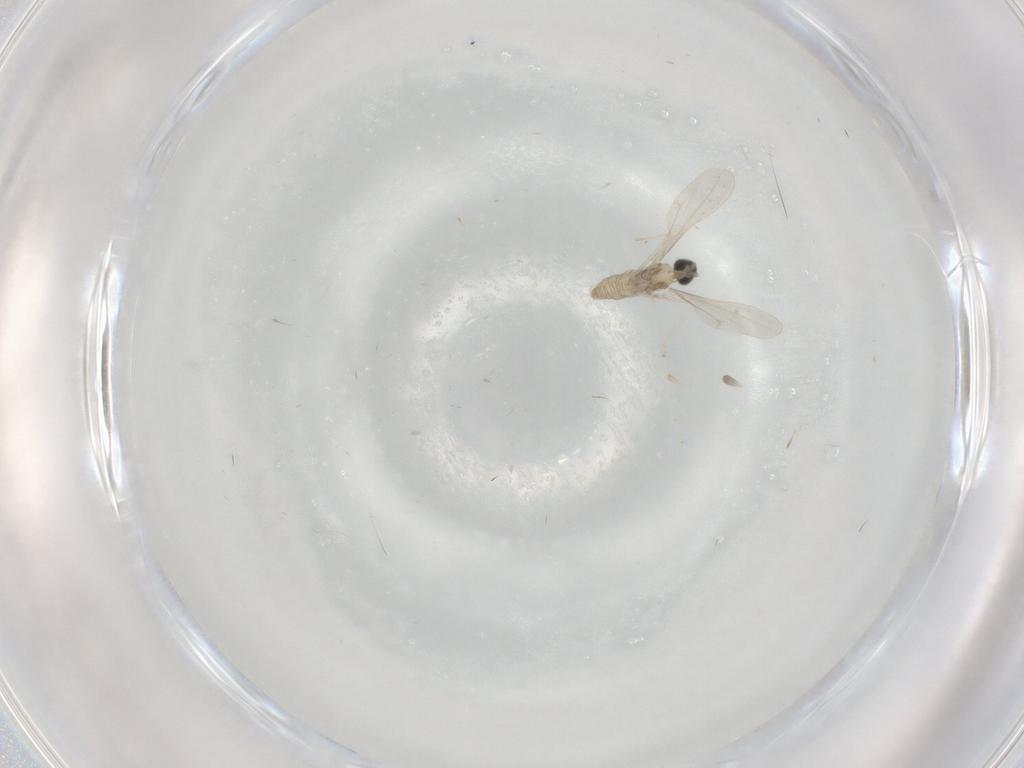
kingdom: Animalia
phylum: Arthropoda
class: Insecta
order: Diptera
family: Cecidomyiidae
